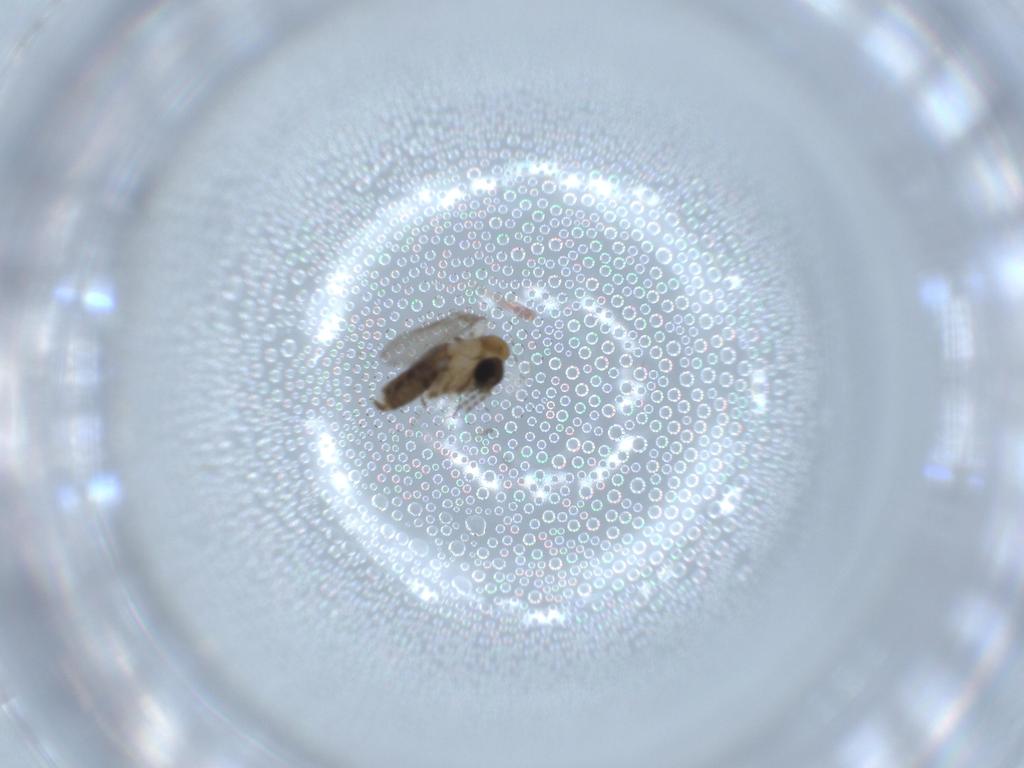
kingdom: Animalia
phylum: Arthropoda
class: Insecta
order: Diptera
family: Psychodidae
